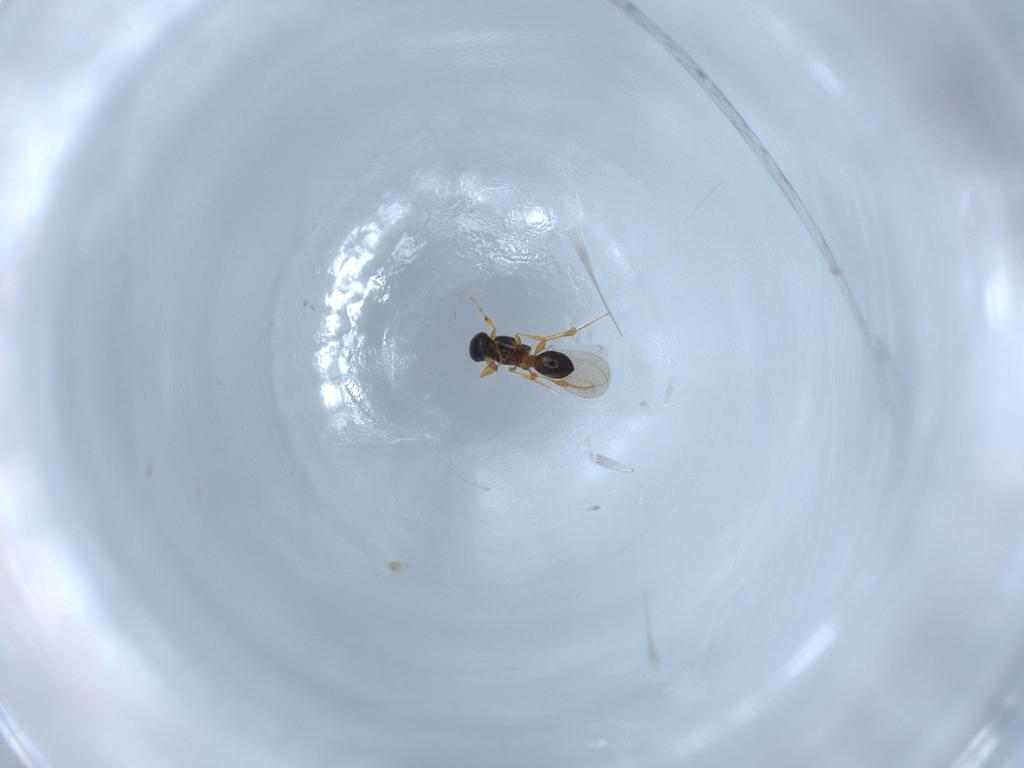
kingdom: Animalia
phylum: Arthropoda
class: Insecta
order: Hymenoptera
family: Platygastridae
